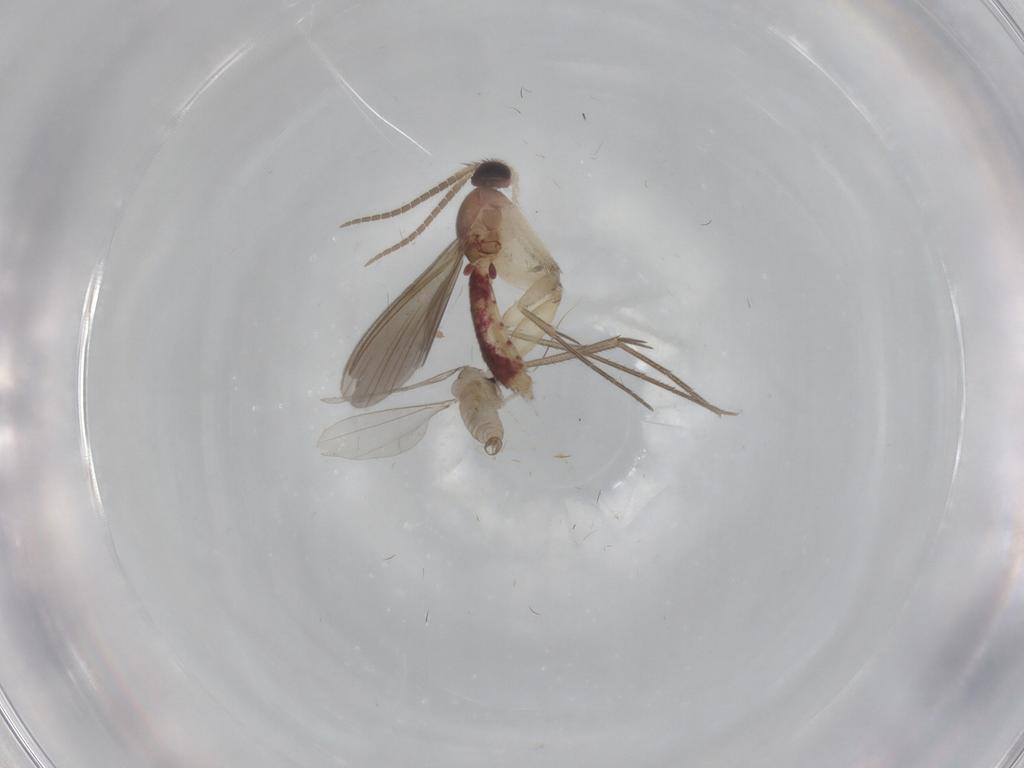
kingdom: Animalia
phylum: Arthropoda
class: Insecta
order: Diptera
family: Mycetophilidae
